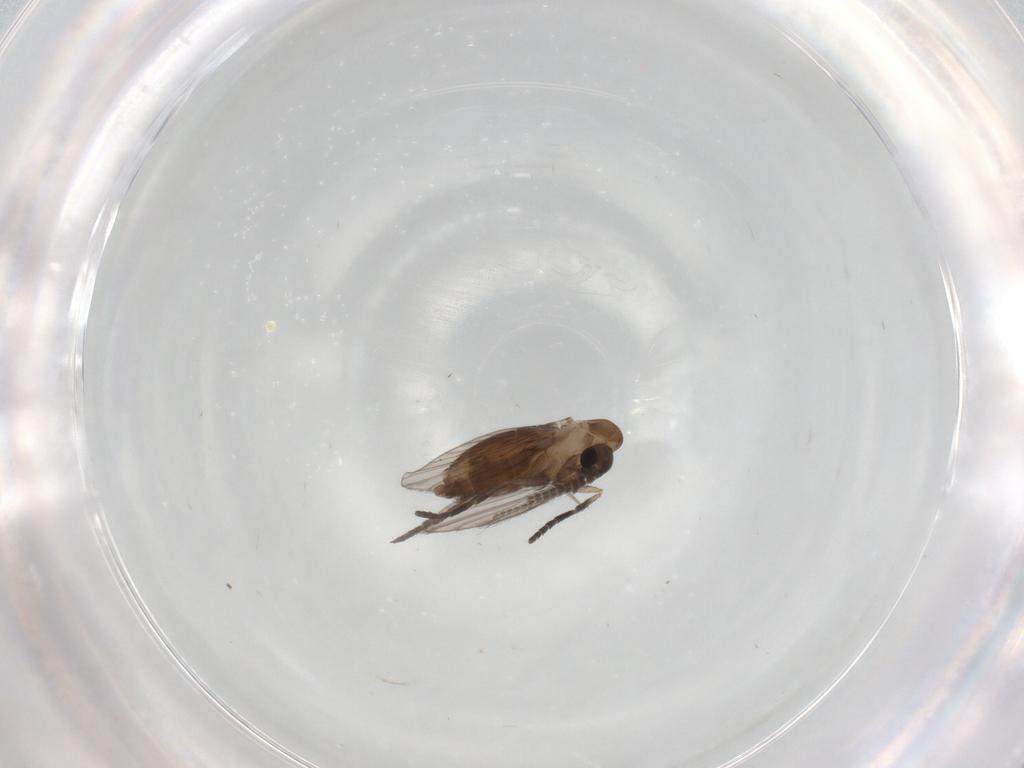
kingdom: Animalia
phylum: Arthropoda
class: Insecta
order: Diptera
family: Psychodidae
